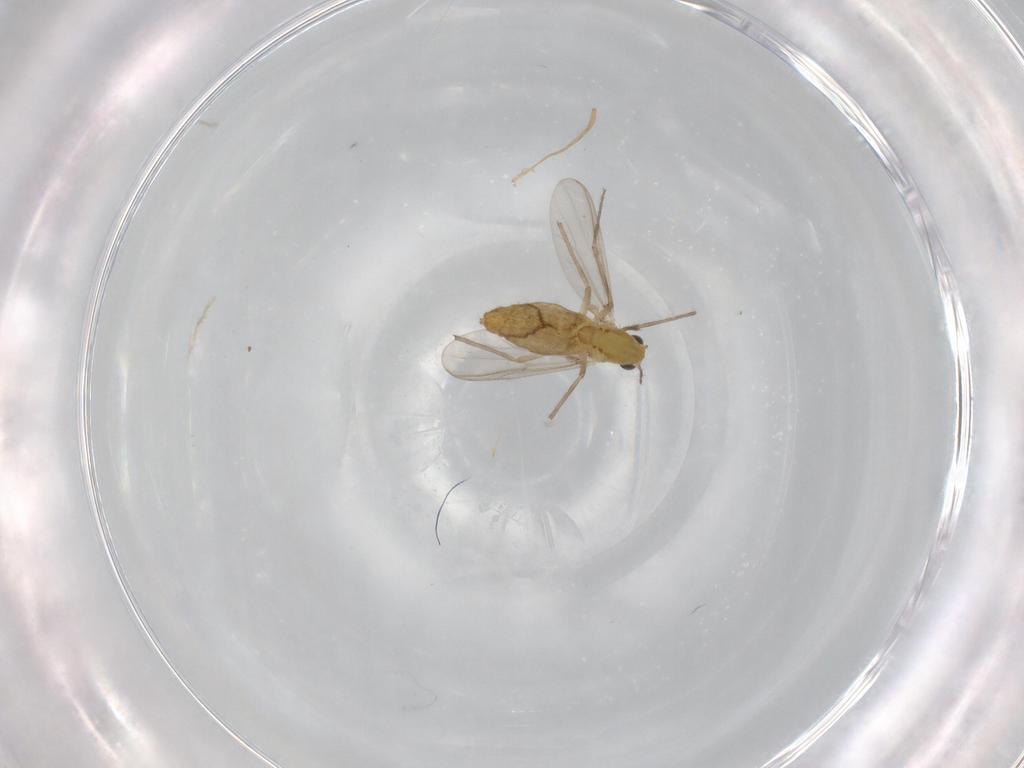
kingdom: Animalia
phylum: Arthropoda
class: Insecta
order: Diptera
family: Chironomidae
